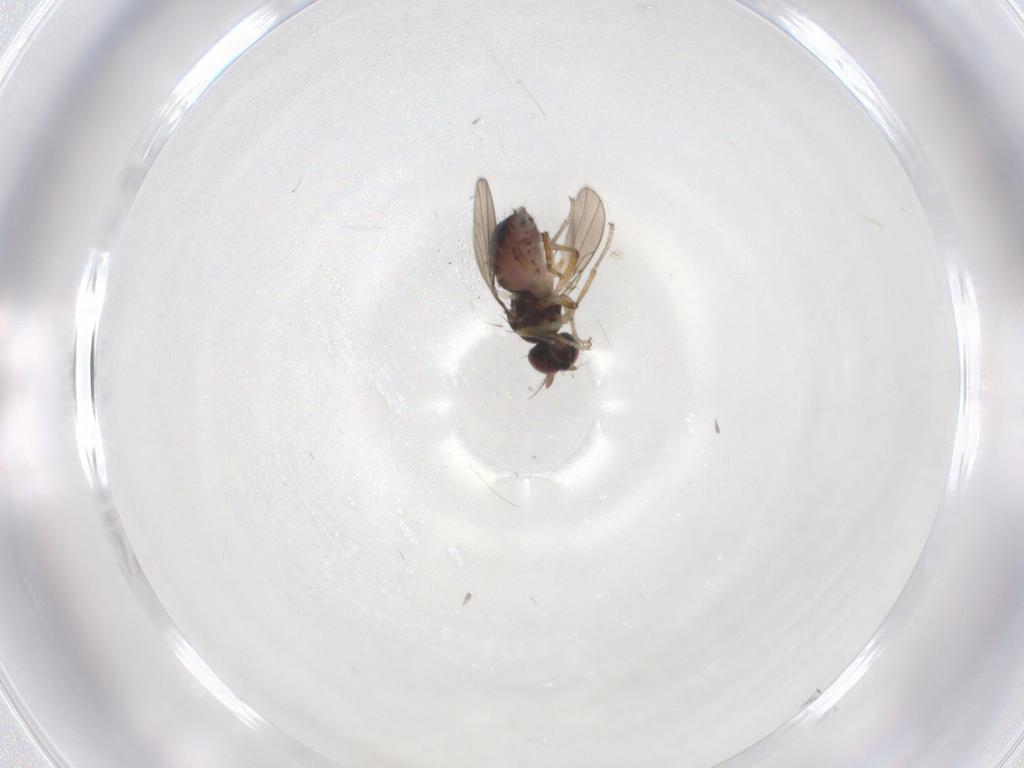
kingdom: Animalia
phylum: Arthropoda
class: Insecta
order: Diptera
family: Ephydridae
